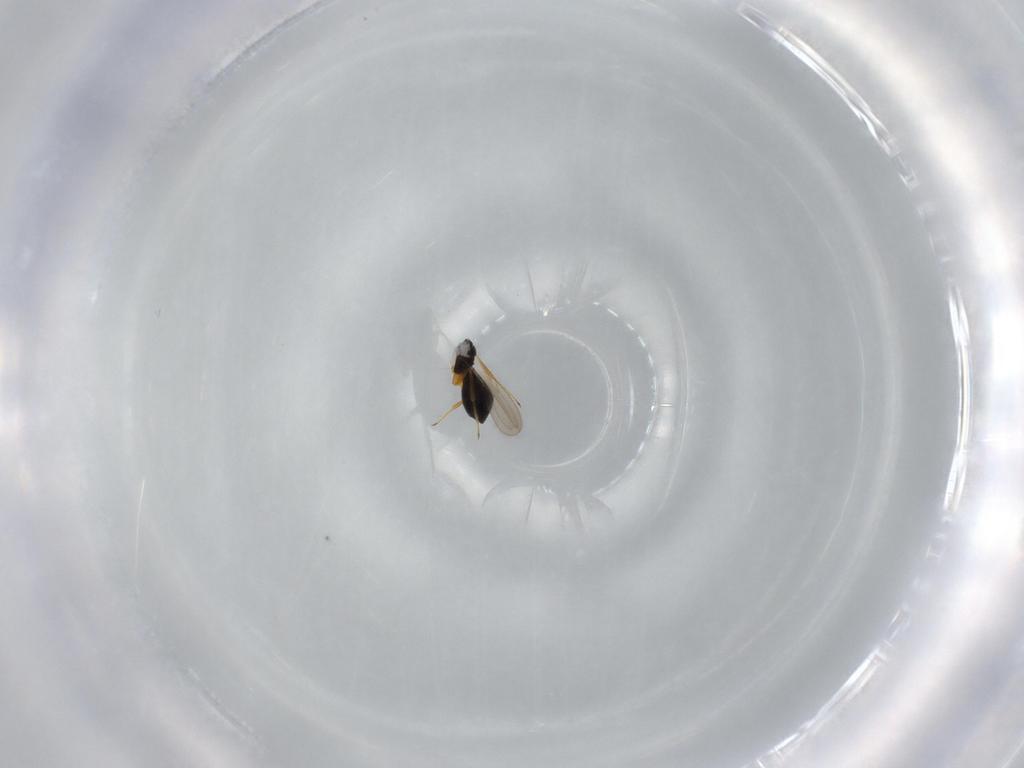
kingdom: Animalia
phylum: Arthropoda
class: Insecta
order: Hymenoptera
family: Scelionidae
